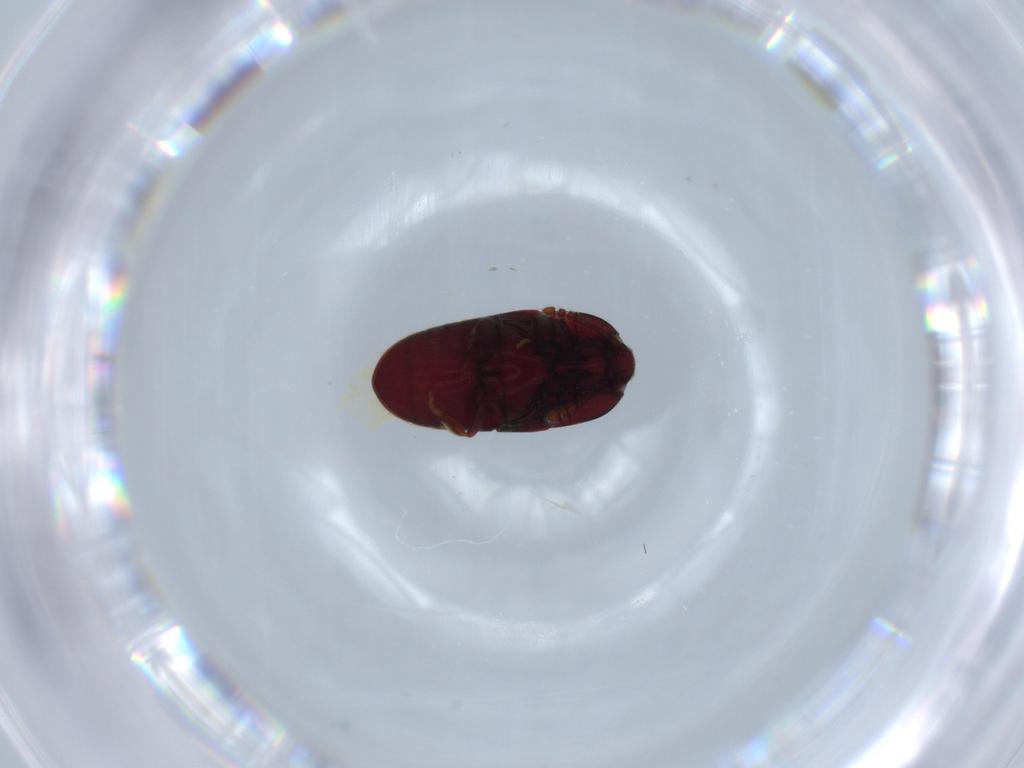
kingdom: Animalia
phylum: Arthropoda
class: Insecta
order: Coleoptera
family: Throscidae
